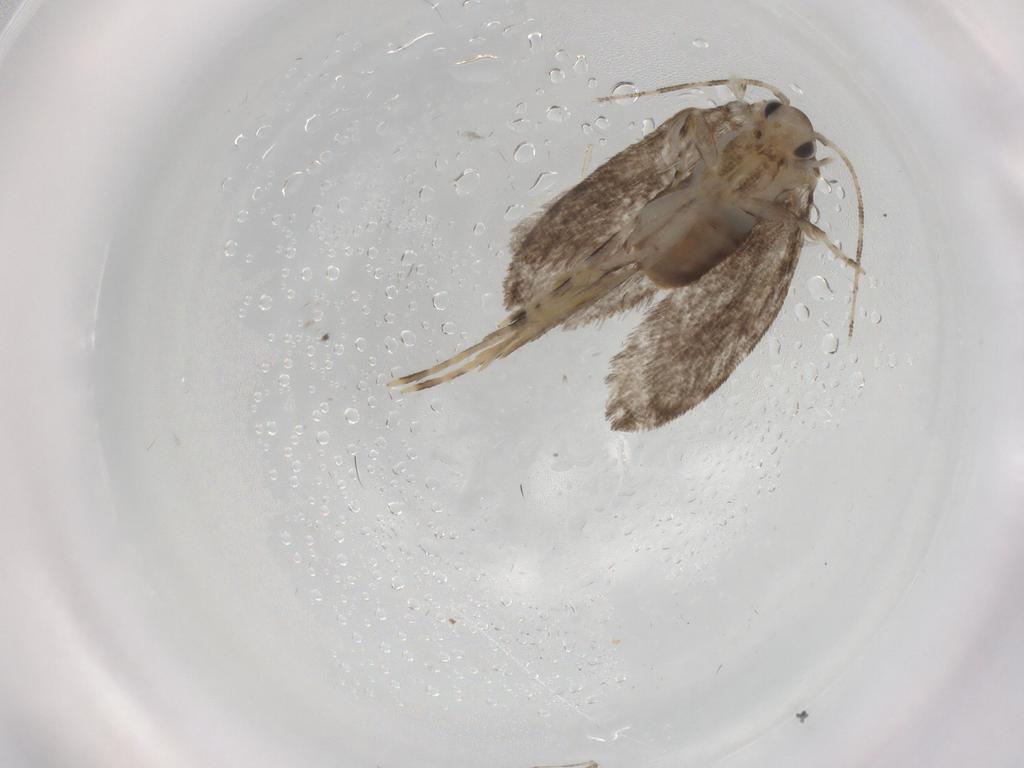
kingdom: Animalia
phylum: Arthropoda
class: Insecta
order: Lepidoptera
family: Tineidae
